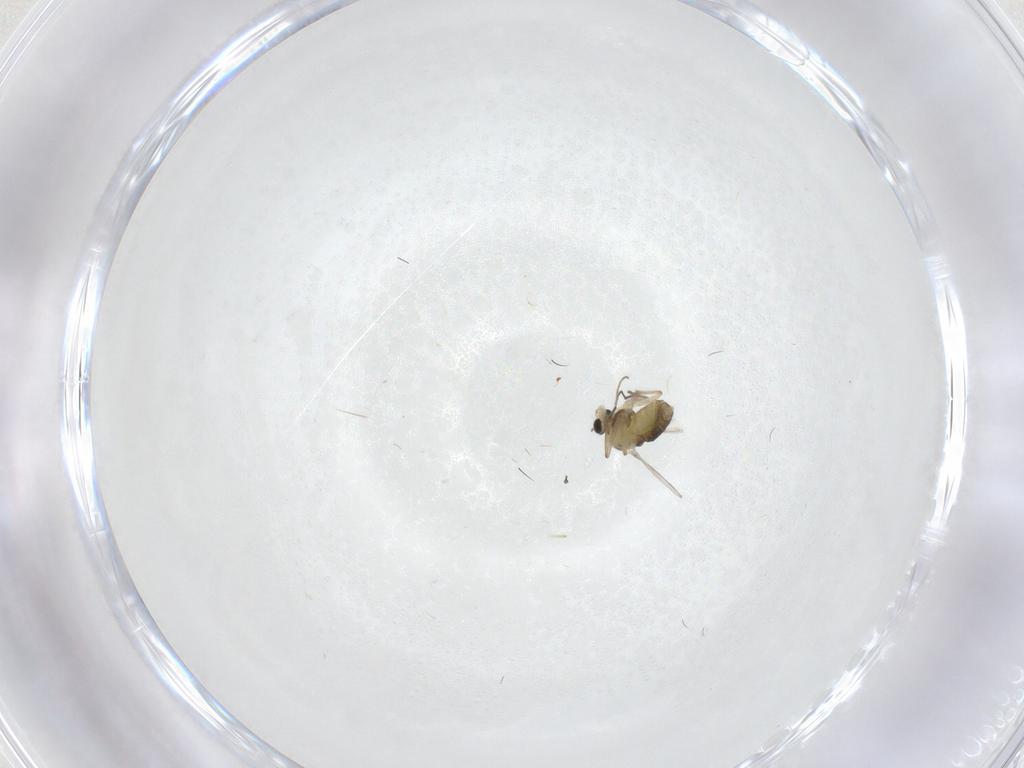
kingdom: Animalia
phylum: Arthropoda
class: Insecta
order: Diptera
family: Chironomidae
